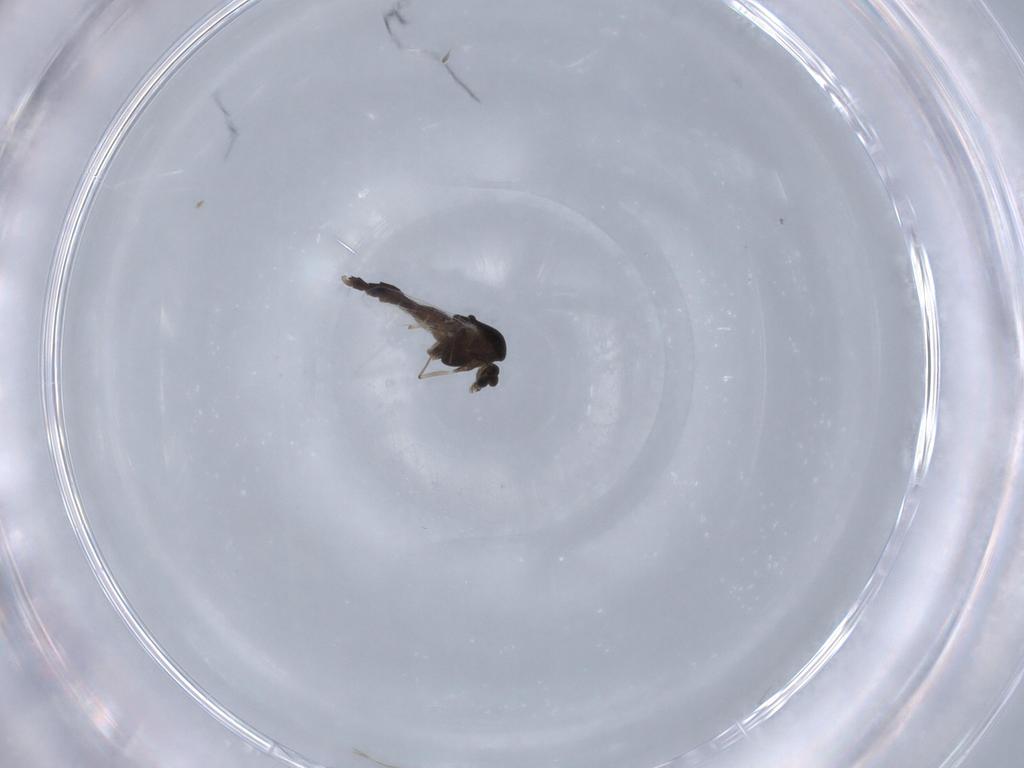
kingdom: Animalia
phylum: Arthropoda
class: Insecta
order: Diptera
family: Chironomidae
